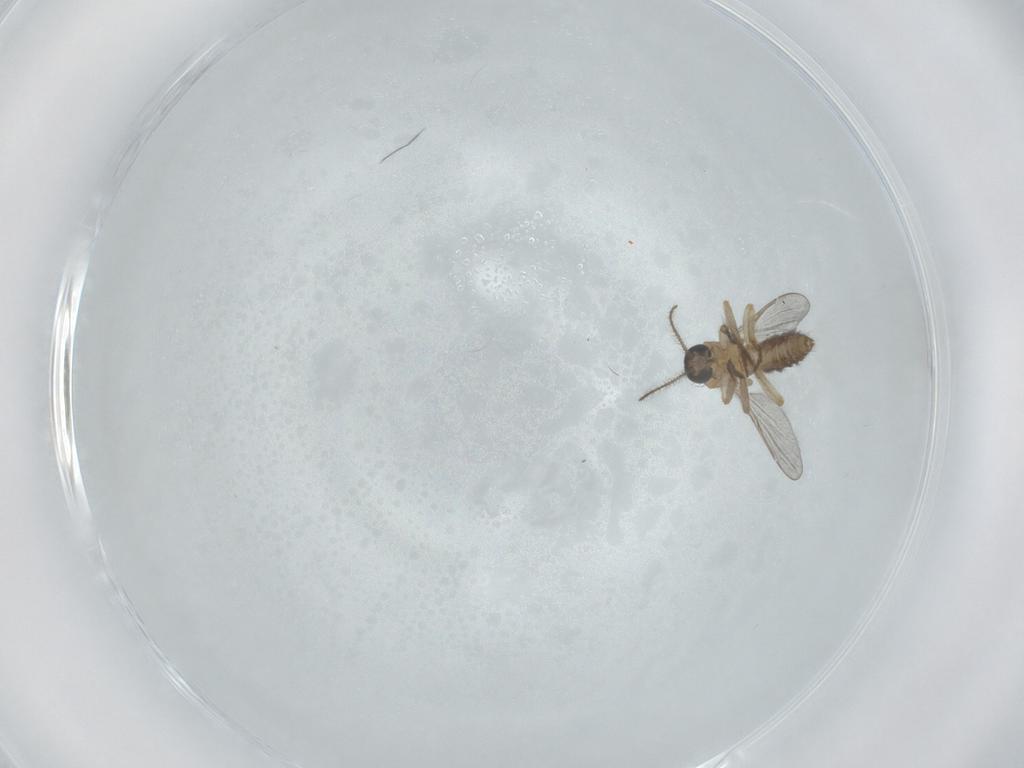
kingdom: Animalia
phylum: Arthropoda
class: Insecta
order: Diptera
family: Ceratopogonidae
